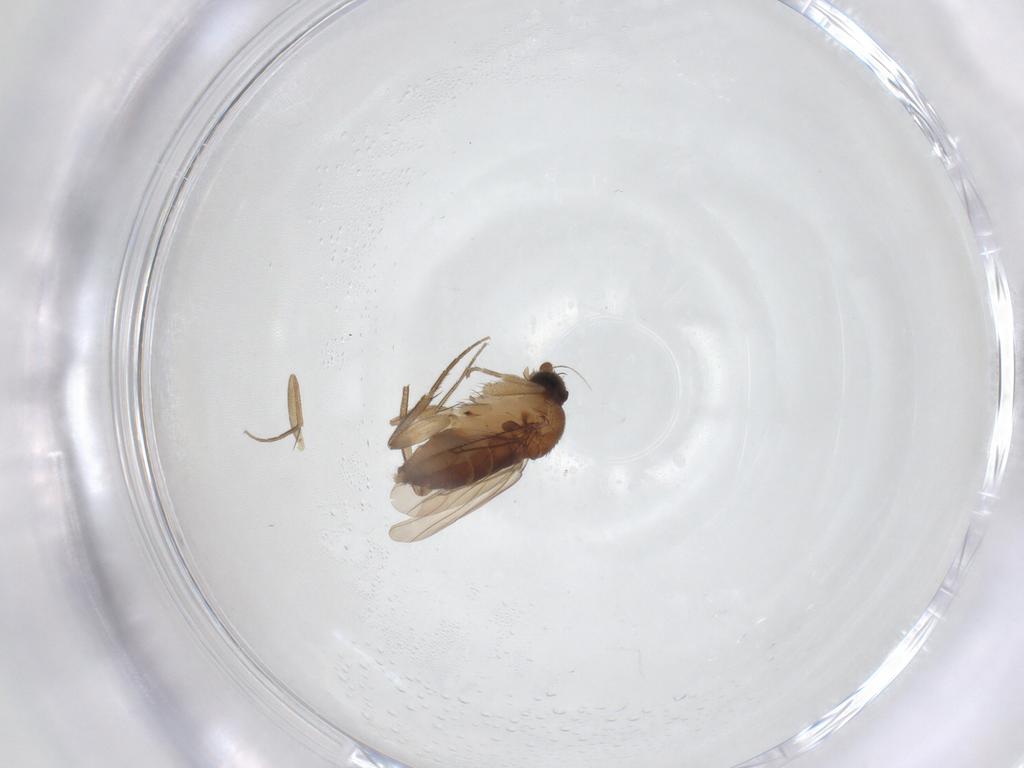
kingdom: Animalia
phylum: Arthropoda
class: Insecta
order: Diptera
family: Phoridae
